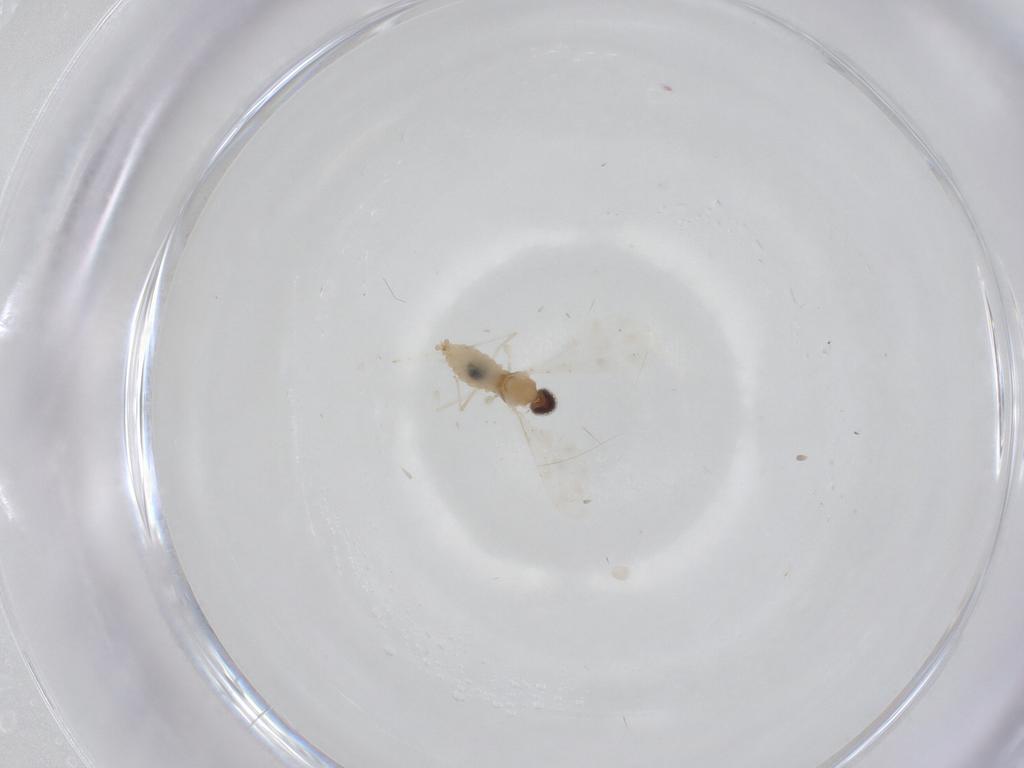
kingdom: Animalia
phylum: Arthropoda
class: Insecta
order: Diptera
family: Cecidomyiidae
